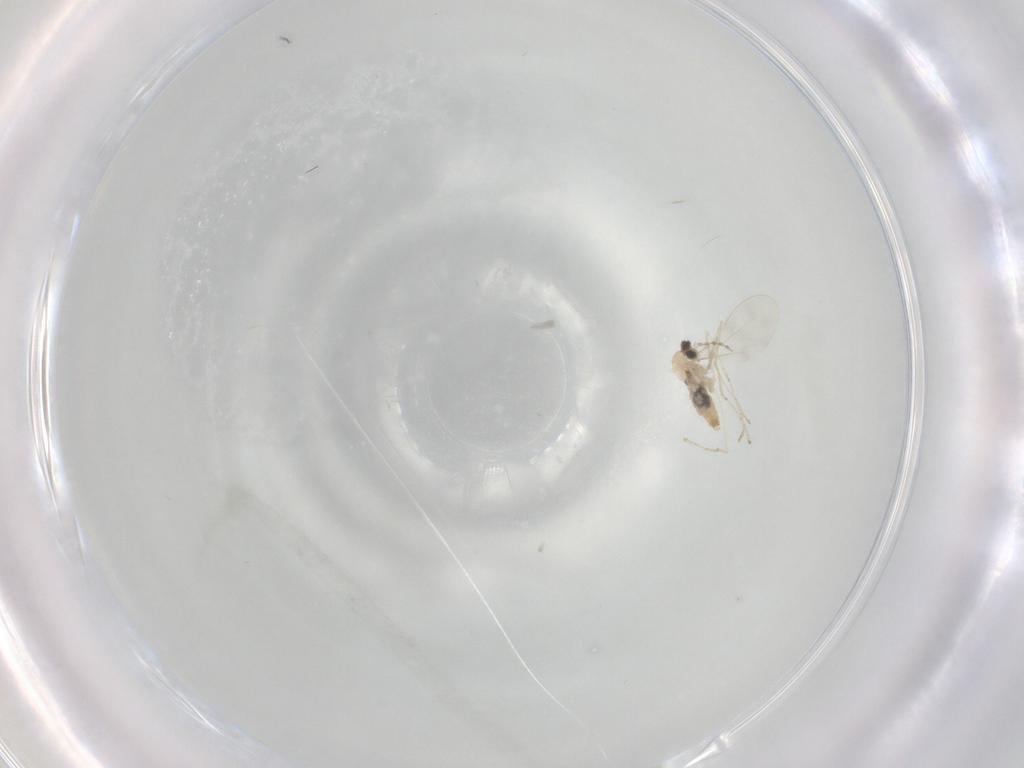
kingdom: Animalia
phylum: Arthropoda
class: Insecta
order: Diptera
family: Cecidomyiidae
